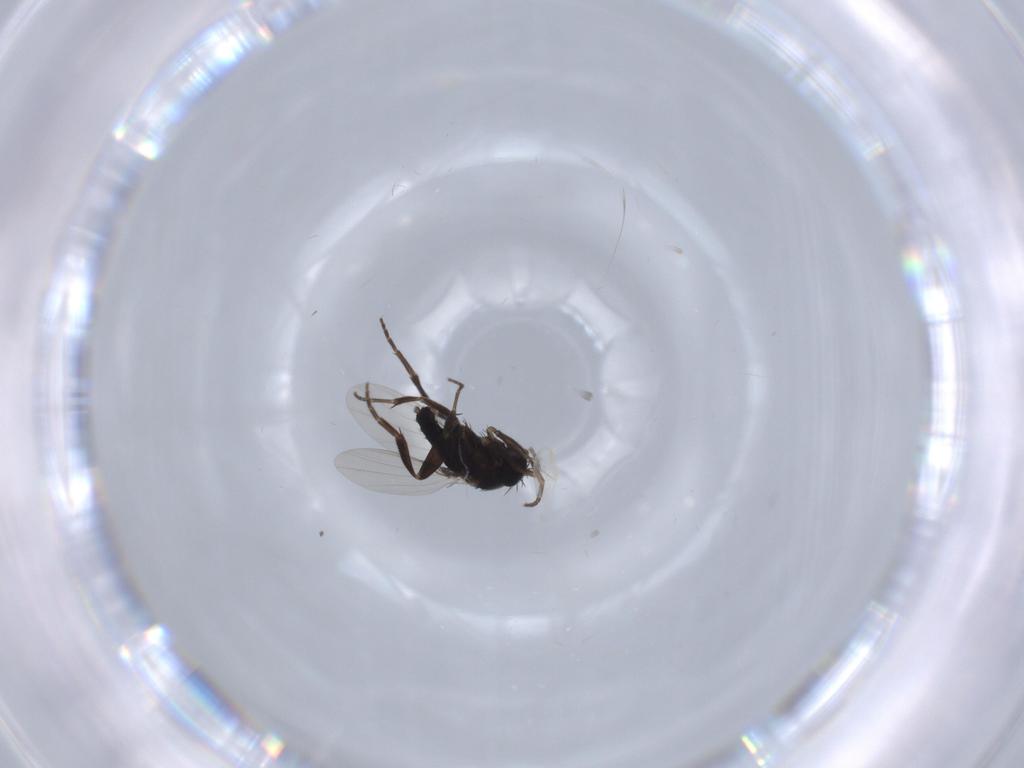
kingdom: Animalia
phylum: Arthropoda
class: Insecta
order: Diptera
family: Phoridae
